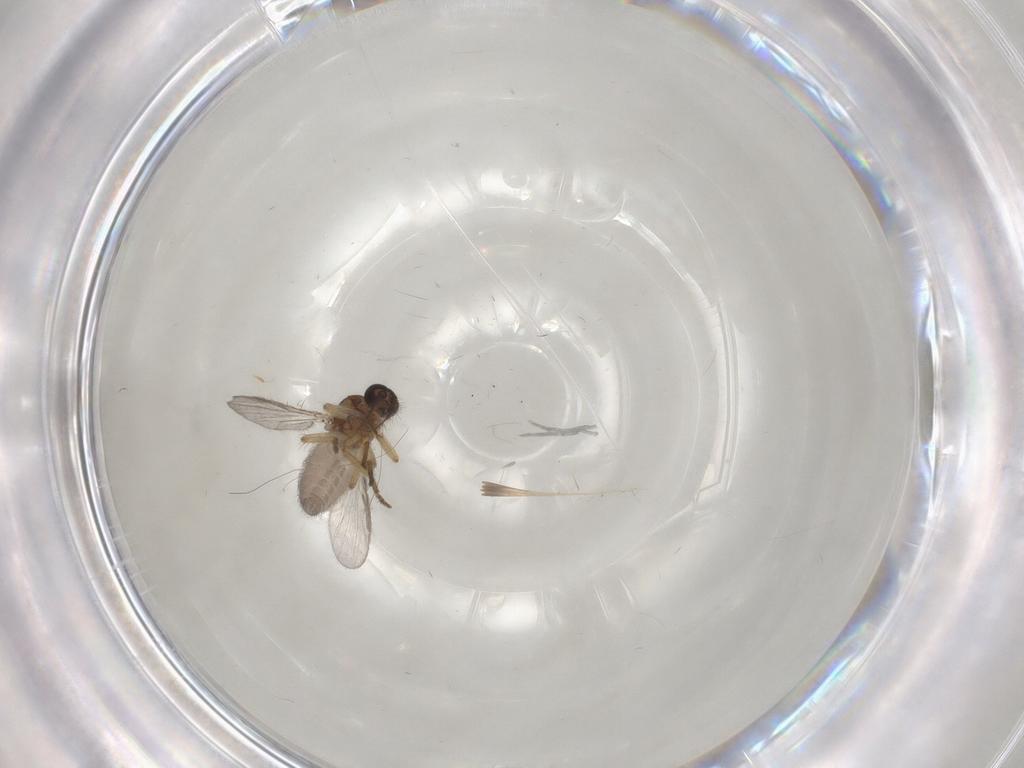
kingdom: Animalia
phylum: Arthropoda
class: Insecta
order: Diptera
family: Ceratopogonidae
